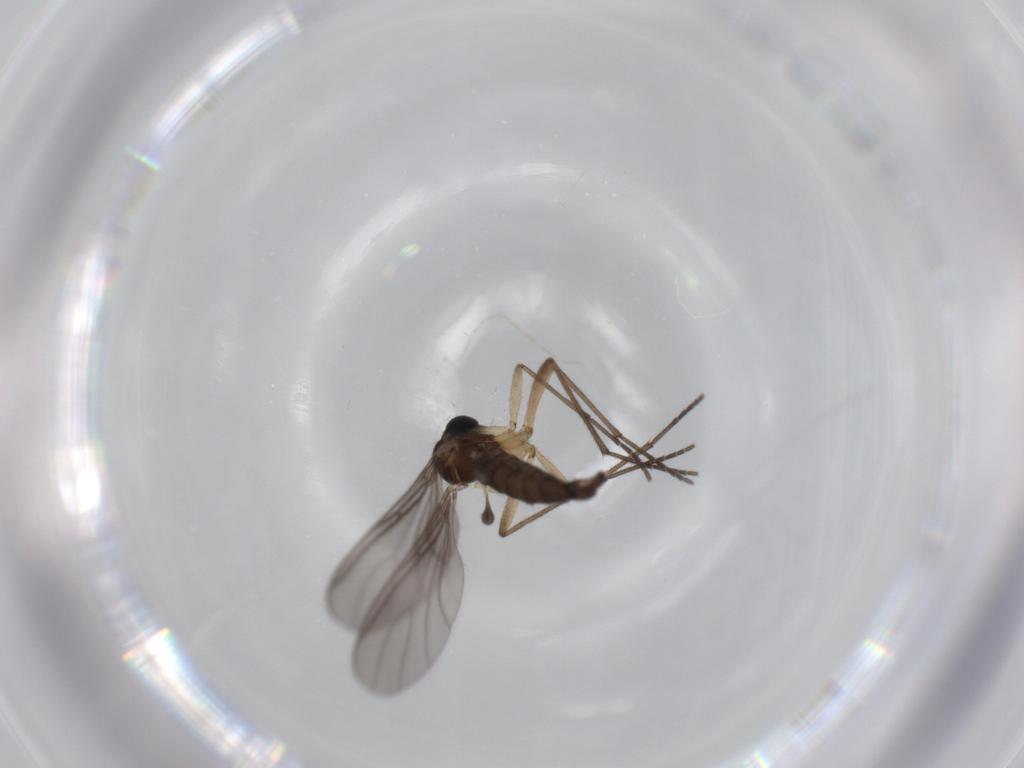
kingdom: Animalia
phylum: Arthropoda
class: Insecta
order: Diptera
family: Sciaridae
